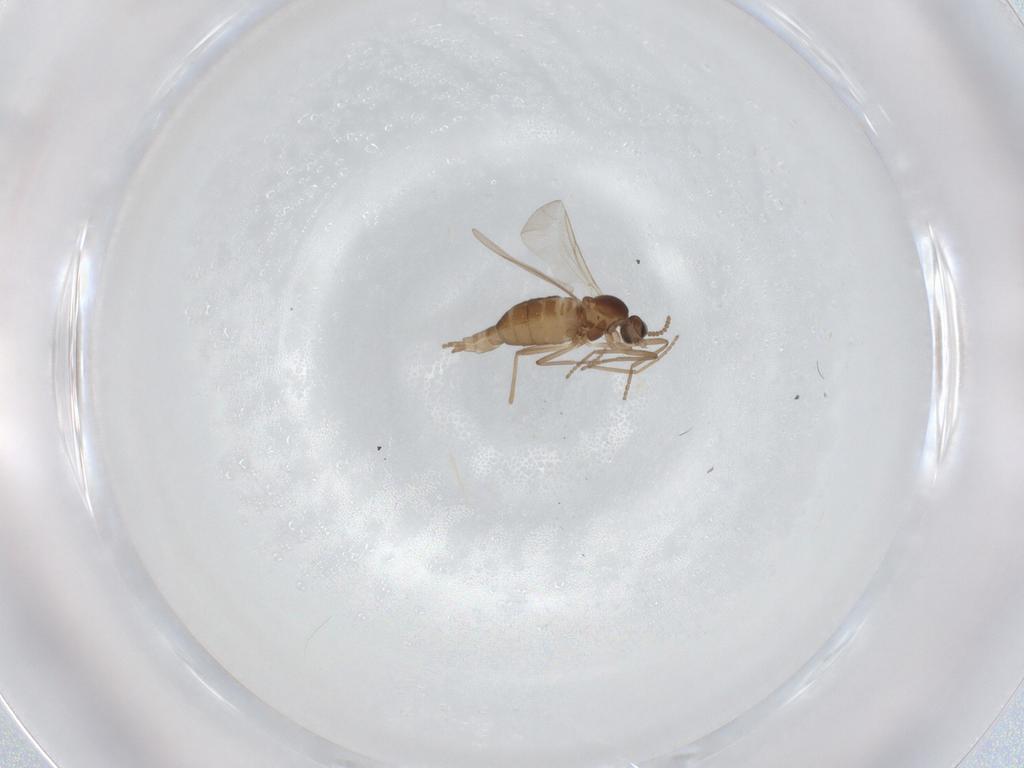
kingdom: Animalia
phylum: Arthropoda
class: Insecta
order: Diptera
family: Cecidomyiidae
